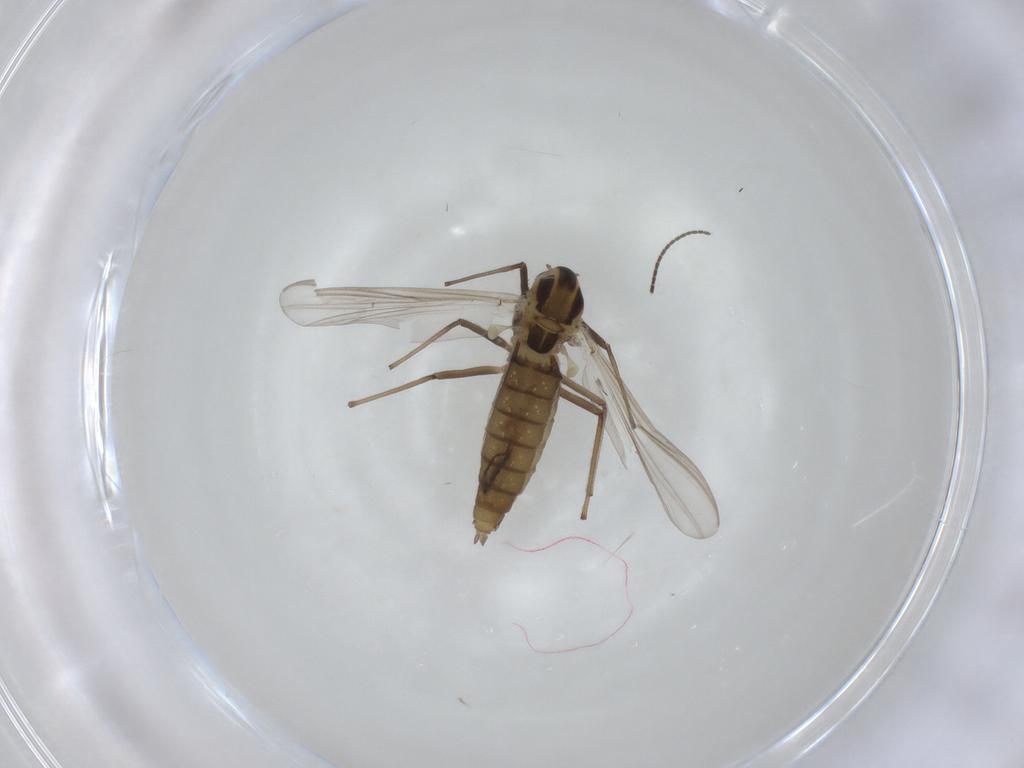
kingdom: Animalia
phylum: Arthropoda
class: Insecta
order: Diptera
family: Chironomidae
